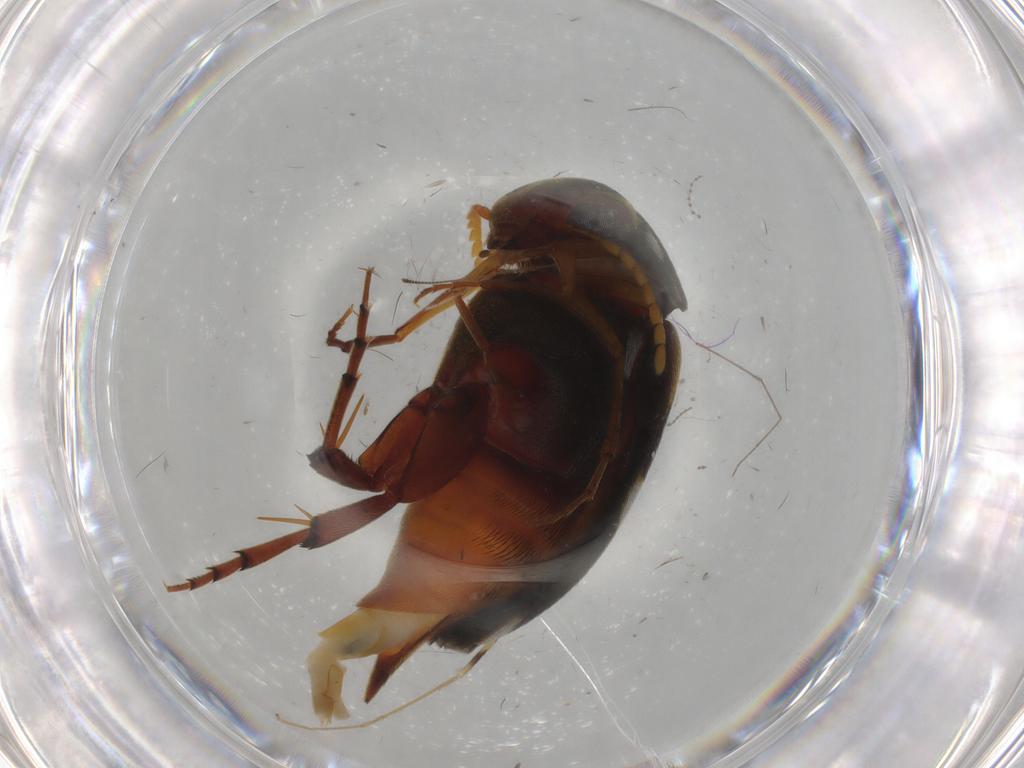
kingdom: Animalia
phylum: Arthropoda
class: Insecta
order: Coleoptera
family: Mordellidae
